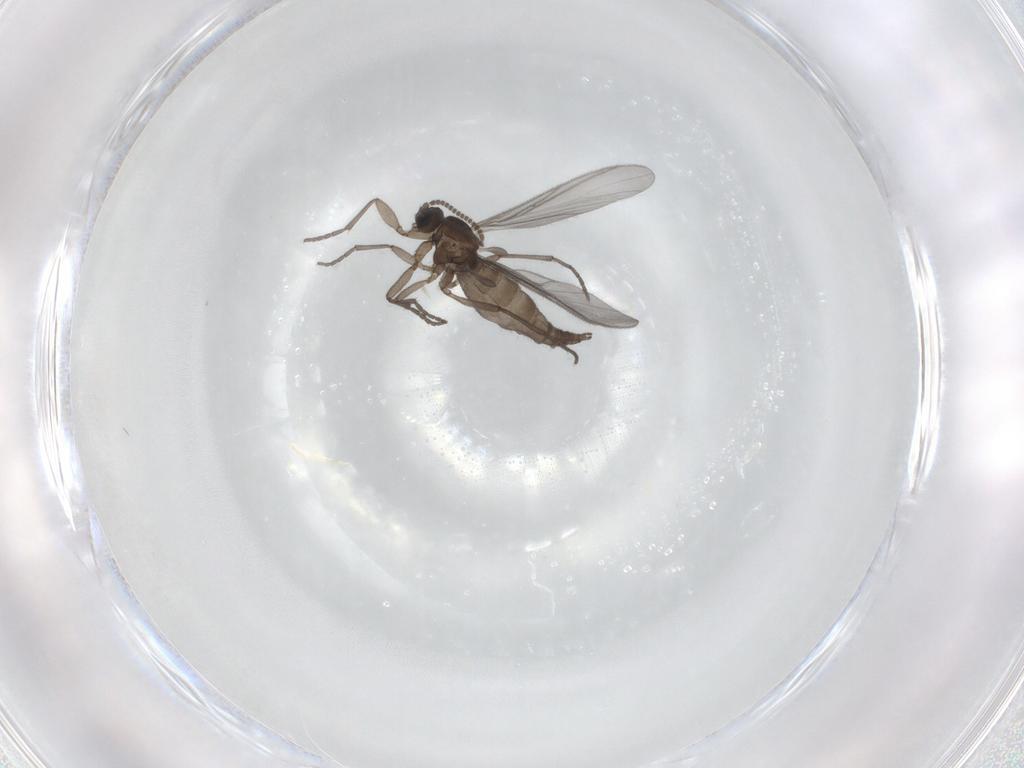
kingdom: Animalia
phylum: Arthropoda
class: Insecta
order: Diptera
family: Sciaridae
